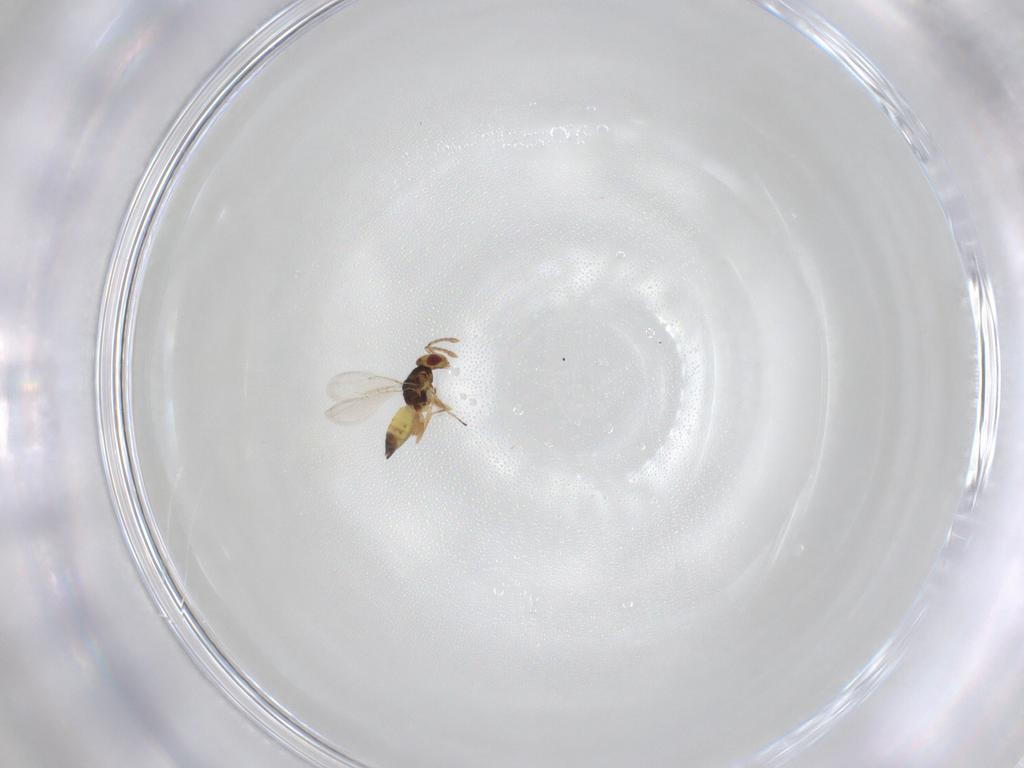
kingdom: Animalia
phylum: Arthropoda
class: Insecta
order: Hymenoptera
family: Eulophidae
